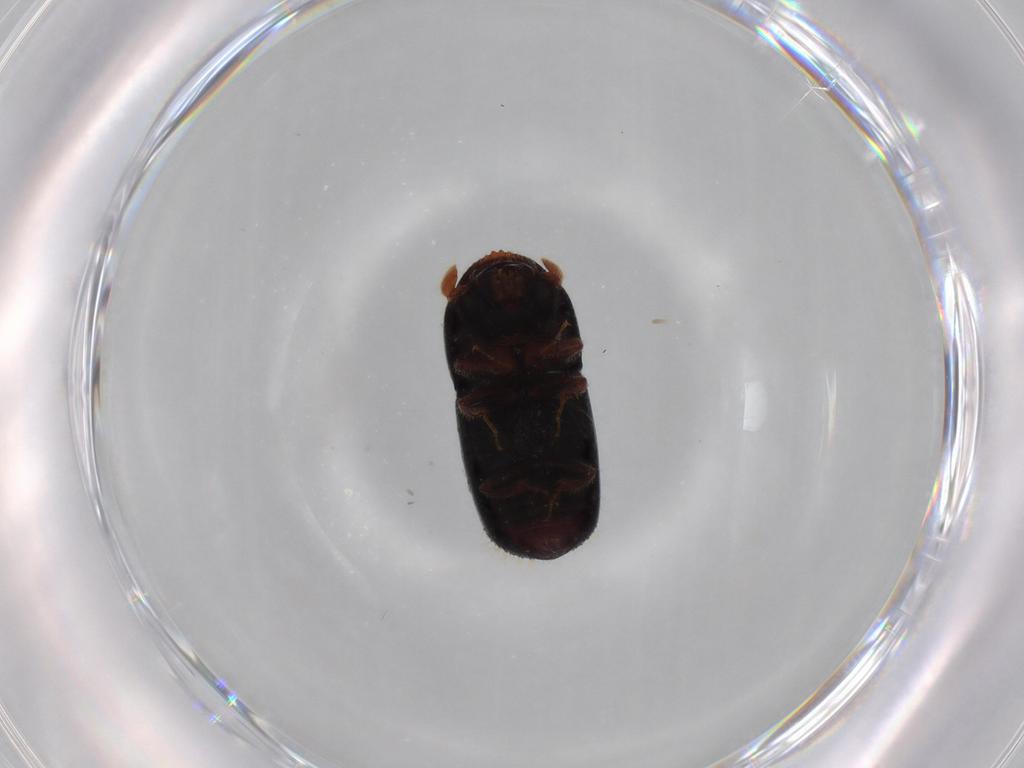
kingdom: Animalia
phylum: Arthropoda
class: Insecta
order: Coleoptera
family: Curculionidae
